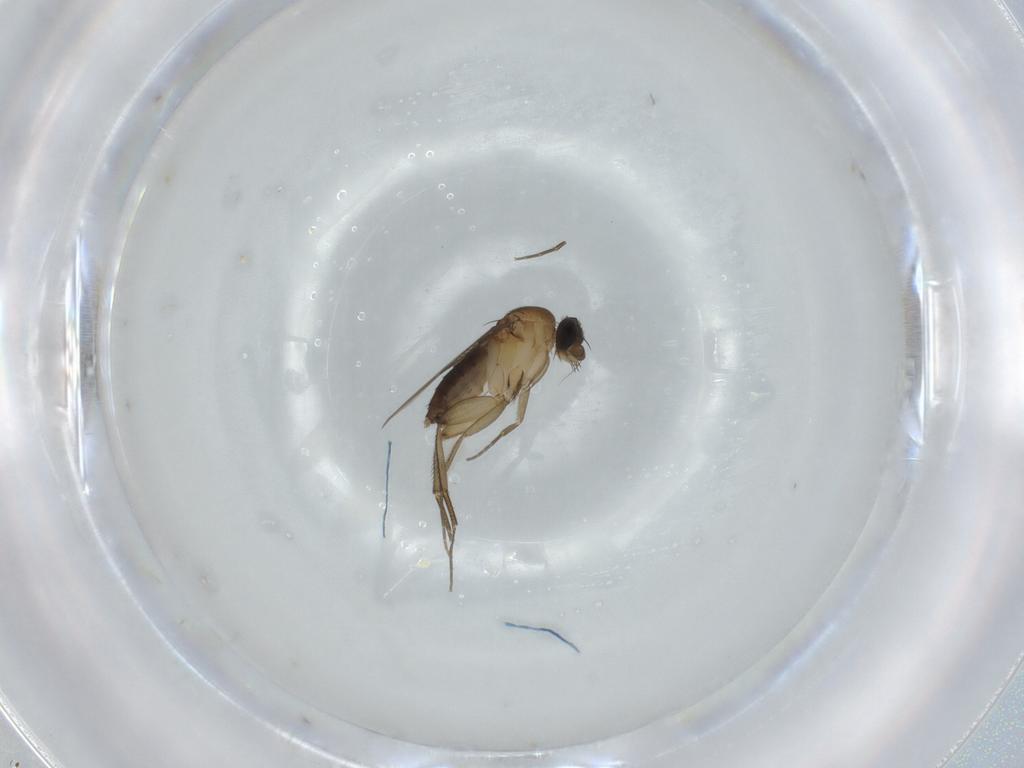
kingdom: Animalia
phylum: Arthropoda
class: Insecta
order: Diptera
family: Phoridae
